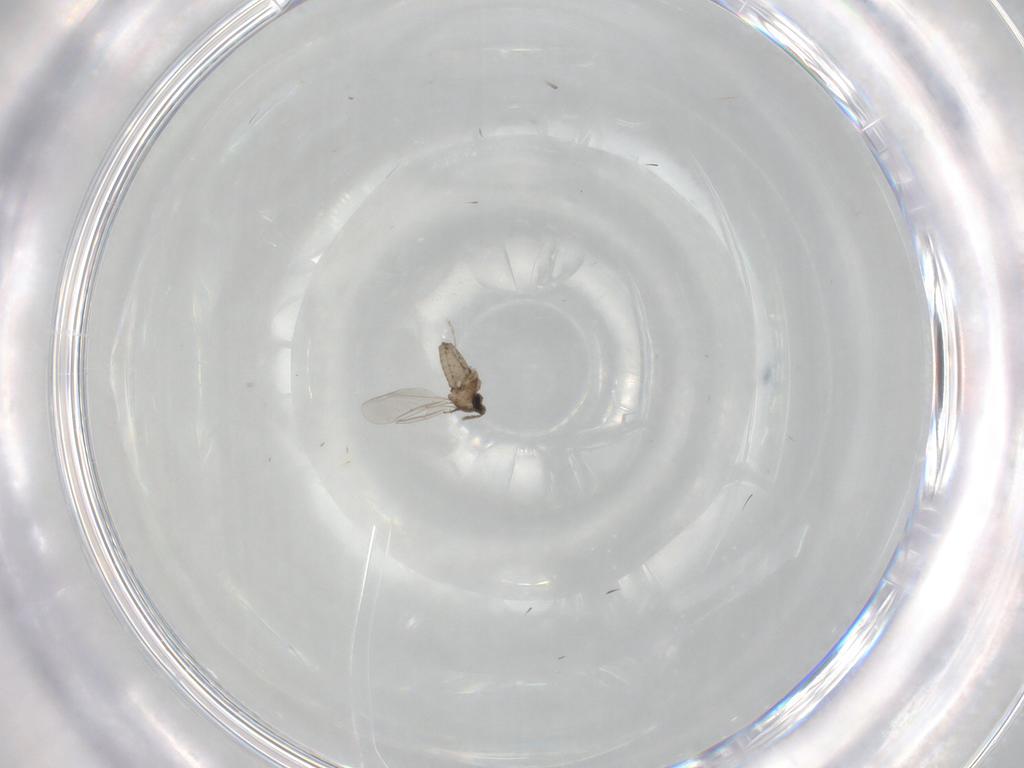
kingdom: Animalia
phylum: Arthropoda
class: Insecta
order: Diptera
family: Cecidomyiidae
